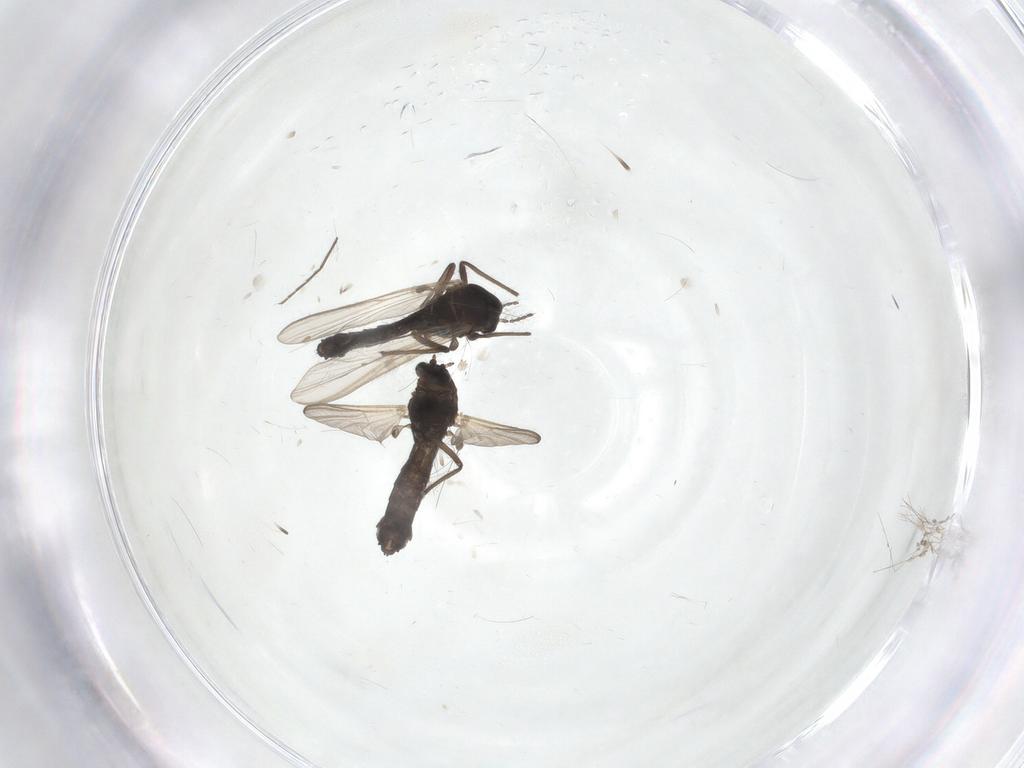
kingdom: Animalia
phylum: Arthropoda
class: Insecta
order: Diptera
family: Chironomidae
